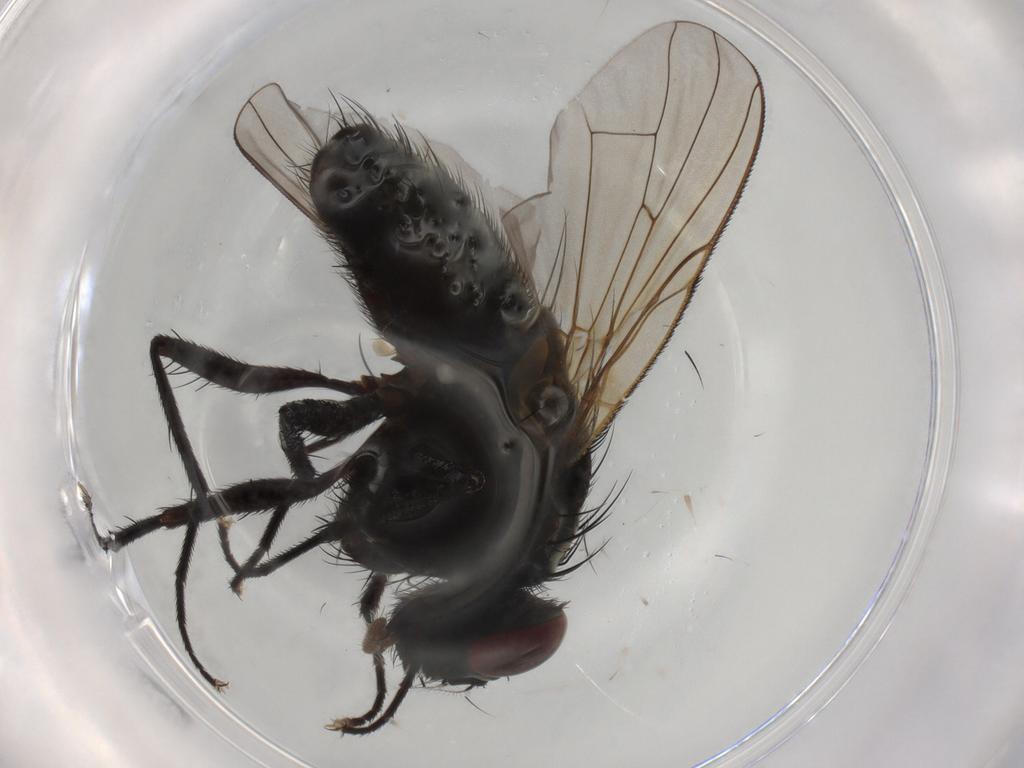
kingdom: Animalia
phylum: Arthropoda
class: Insecta
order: Diptera
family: Muscidae
